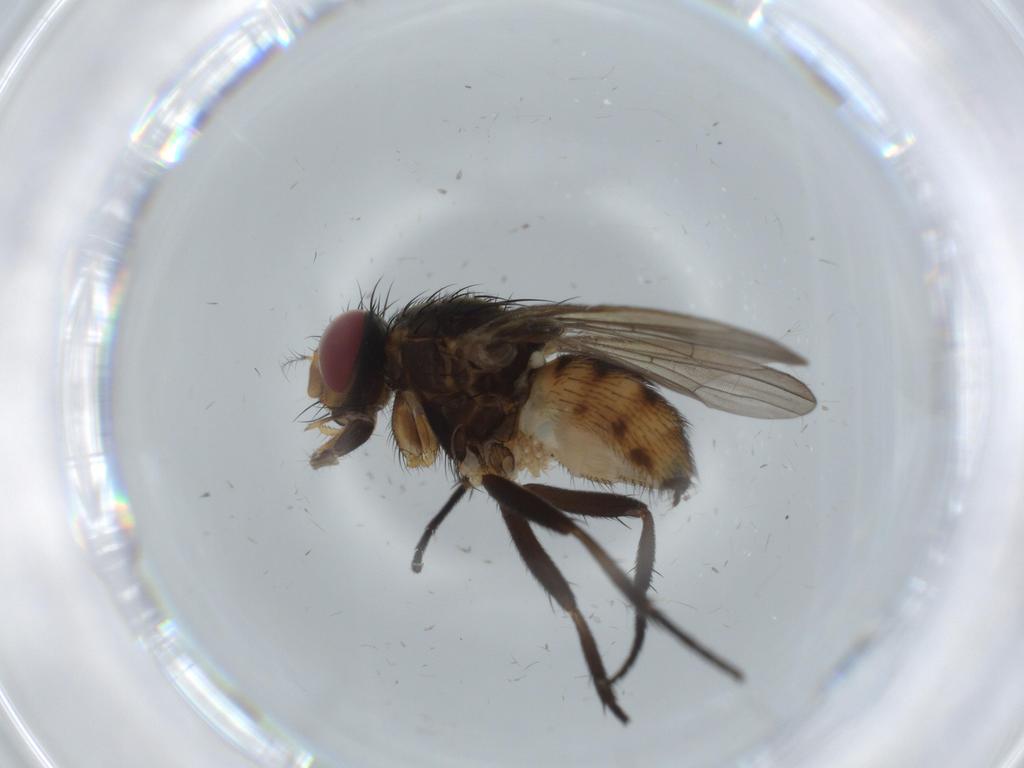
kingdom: Animalia
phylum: Arthropoda
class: Insecta
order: Diptera
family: Anthomyiidae
